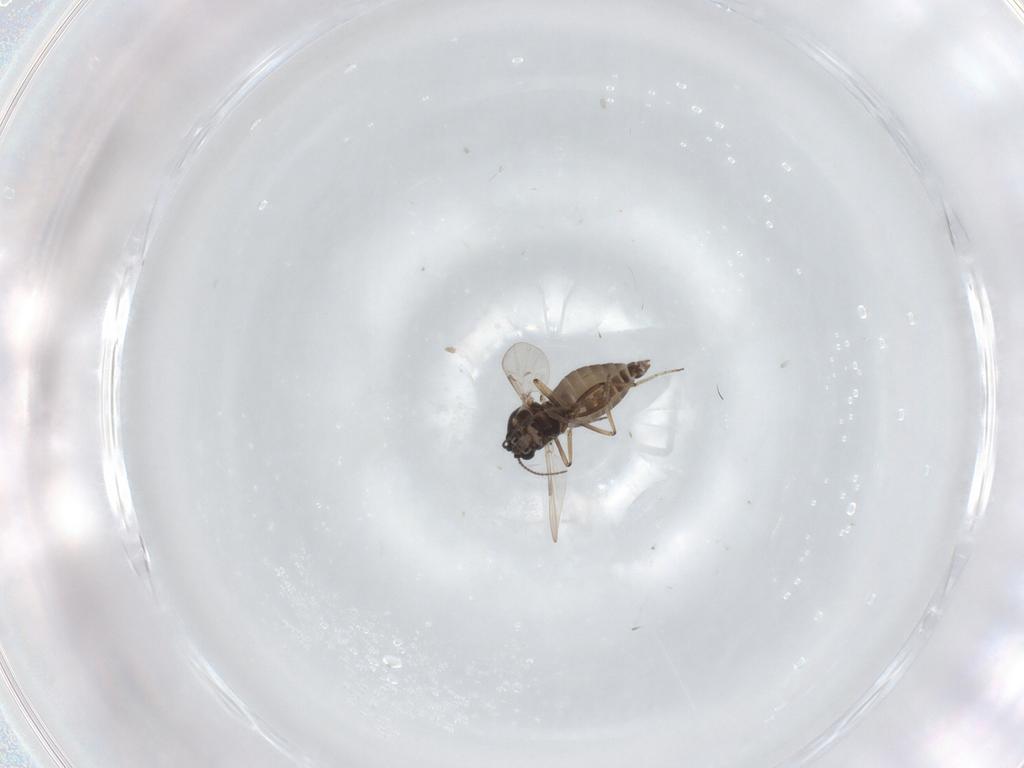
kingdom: Animalia
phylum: Arthropoda
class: Insecta
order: Diptera
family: Ceratopogonidae
